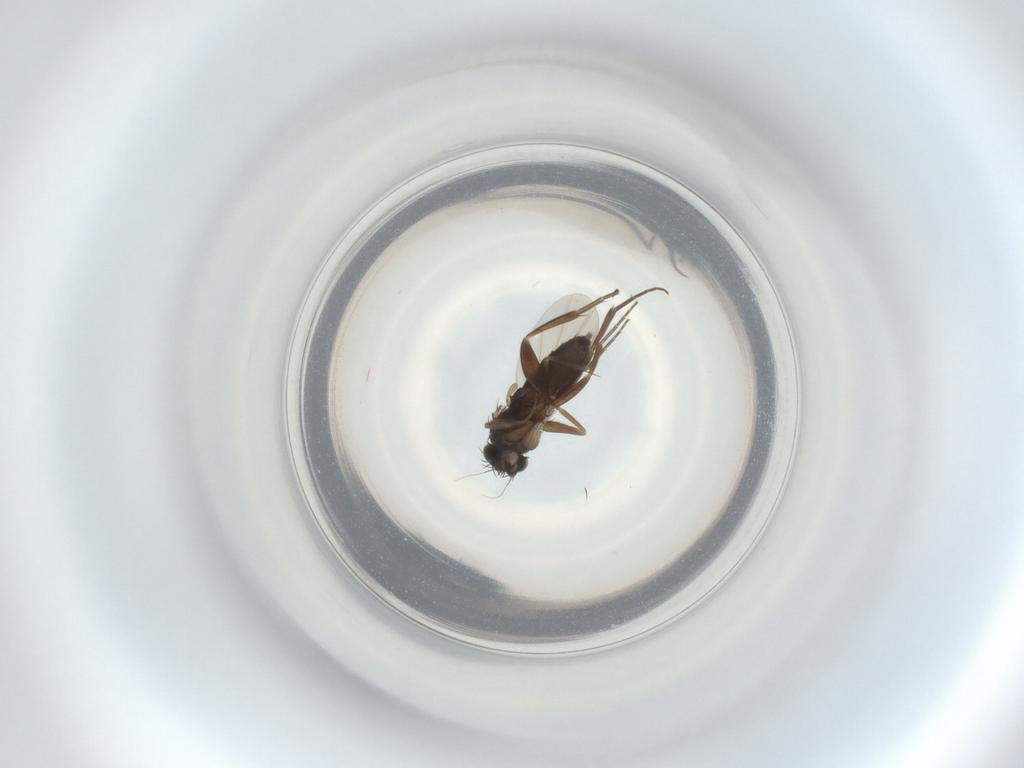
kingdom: Animalia
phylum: Arthropoda
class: Insecta
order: Diptera
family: Phoridae
